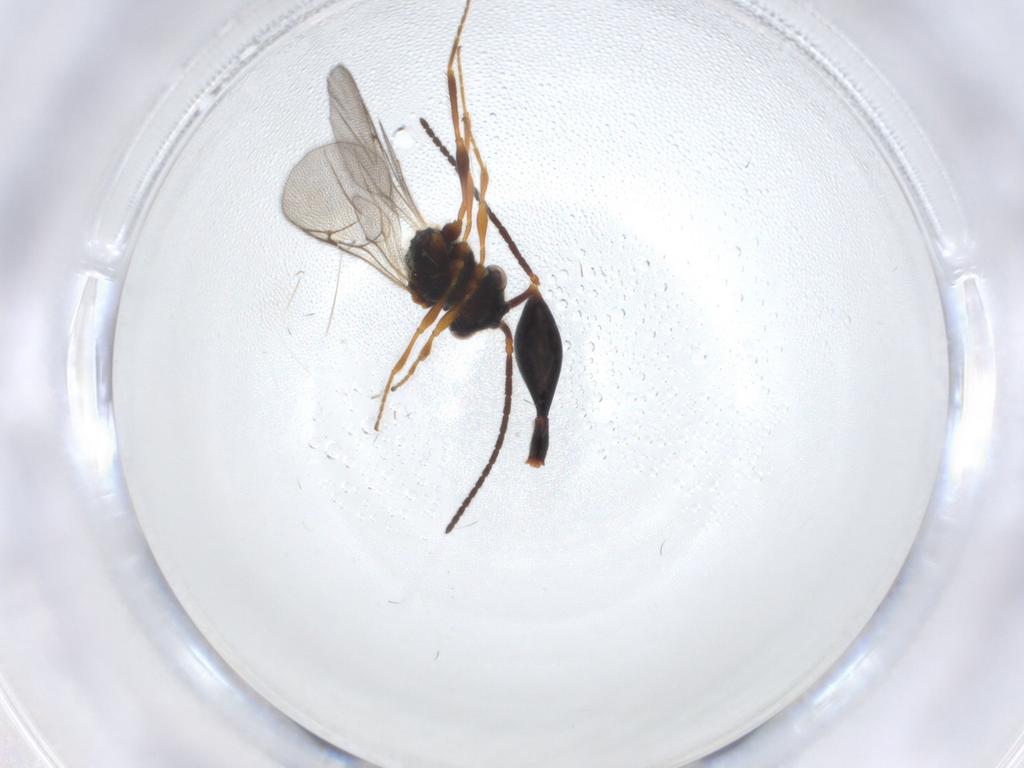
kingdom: Animalia
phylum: Arthropoda
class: Insecta
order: Hymenoptera
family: Diapriidae
